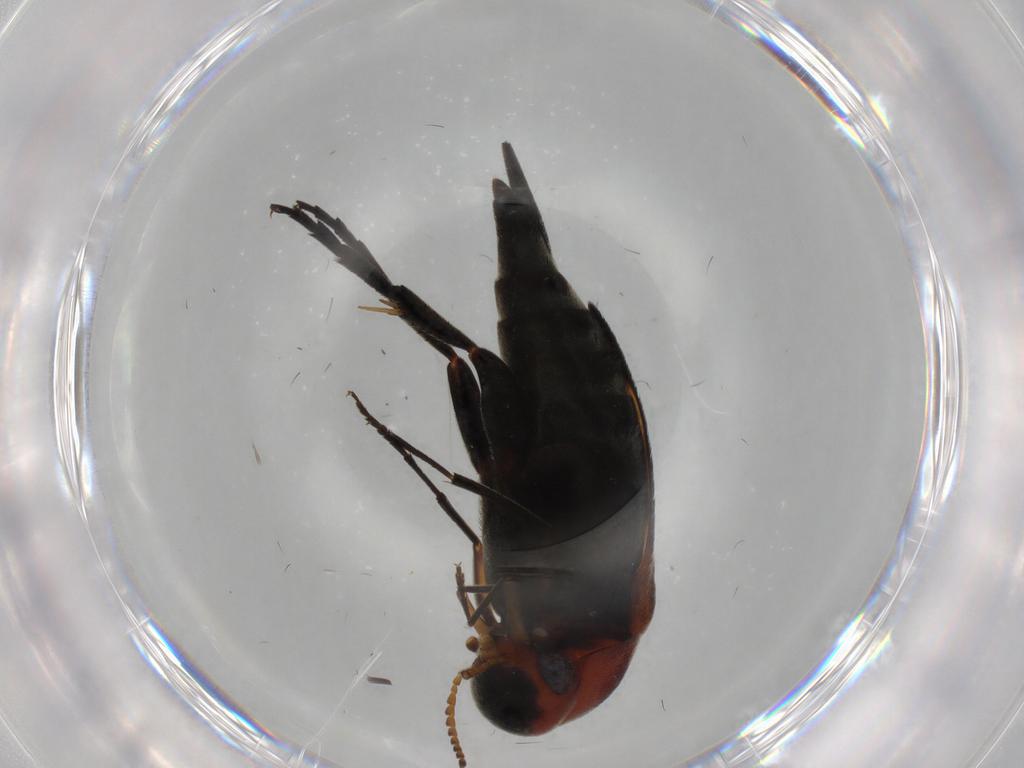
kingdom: Animalia
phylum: Arthropoda
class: Insecta
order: Coleoptera
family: Mordellidae
